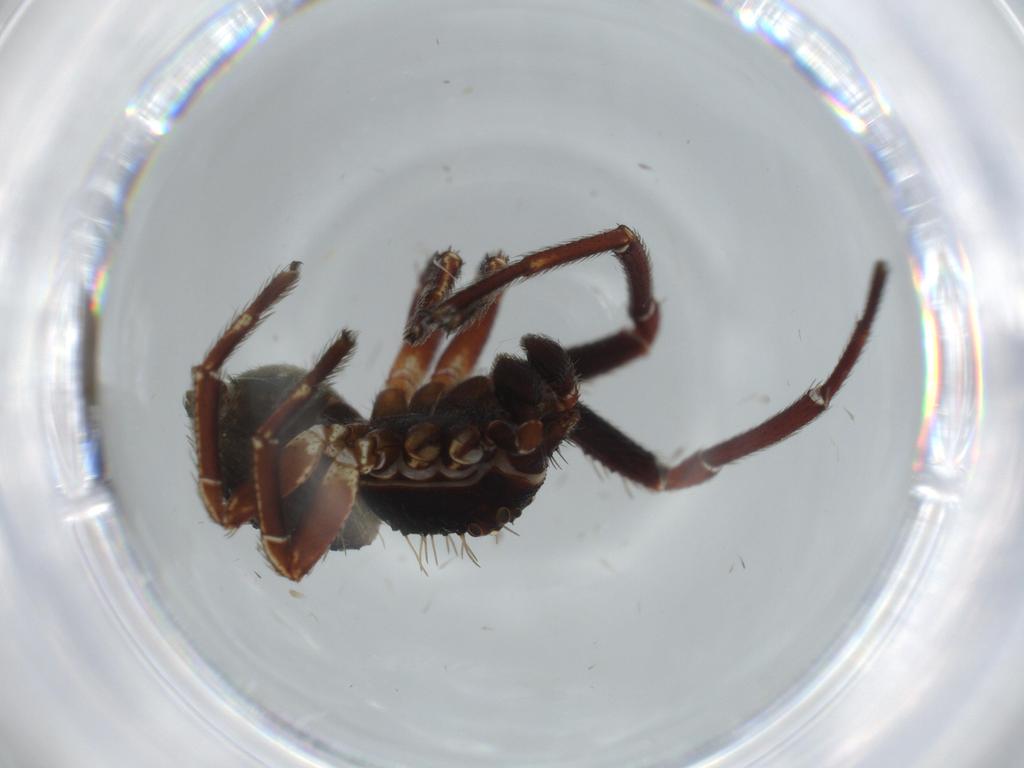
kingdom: Animalia
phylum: Arthropoda
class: Arachnida
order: Araneae
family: Thomisidae
